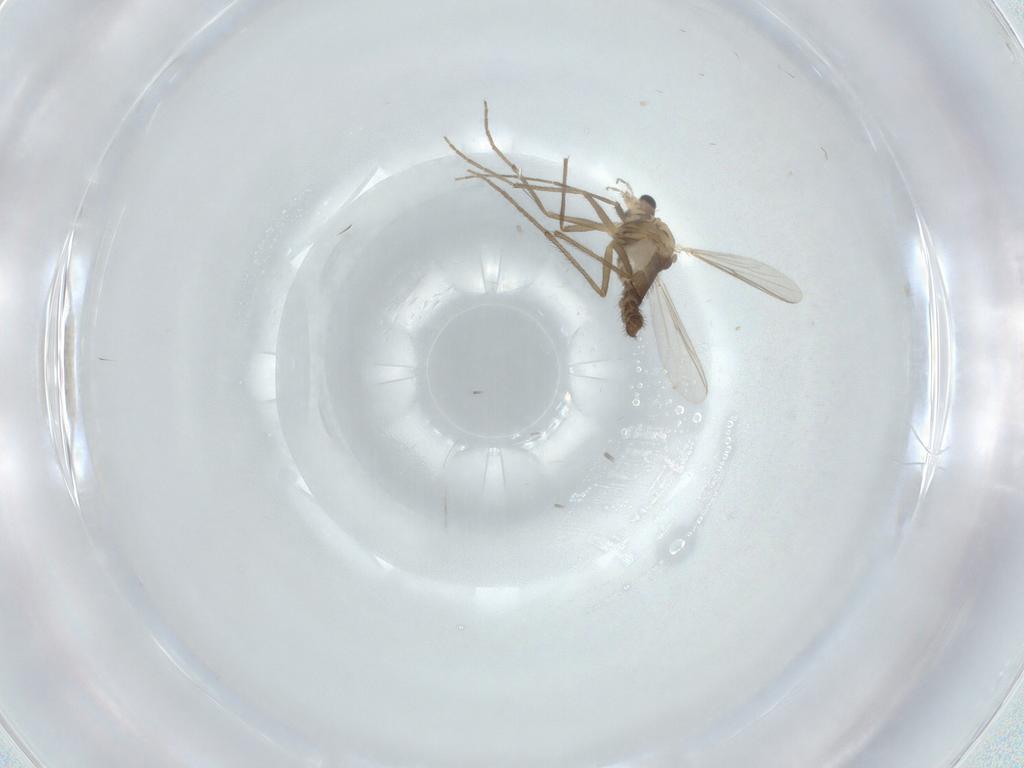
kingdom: Animalia
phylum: Arthropoda
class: Insecta
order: Diptera
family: Chironomidae
